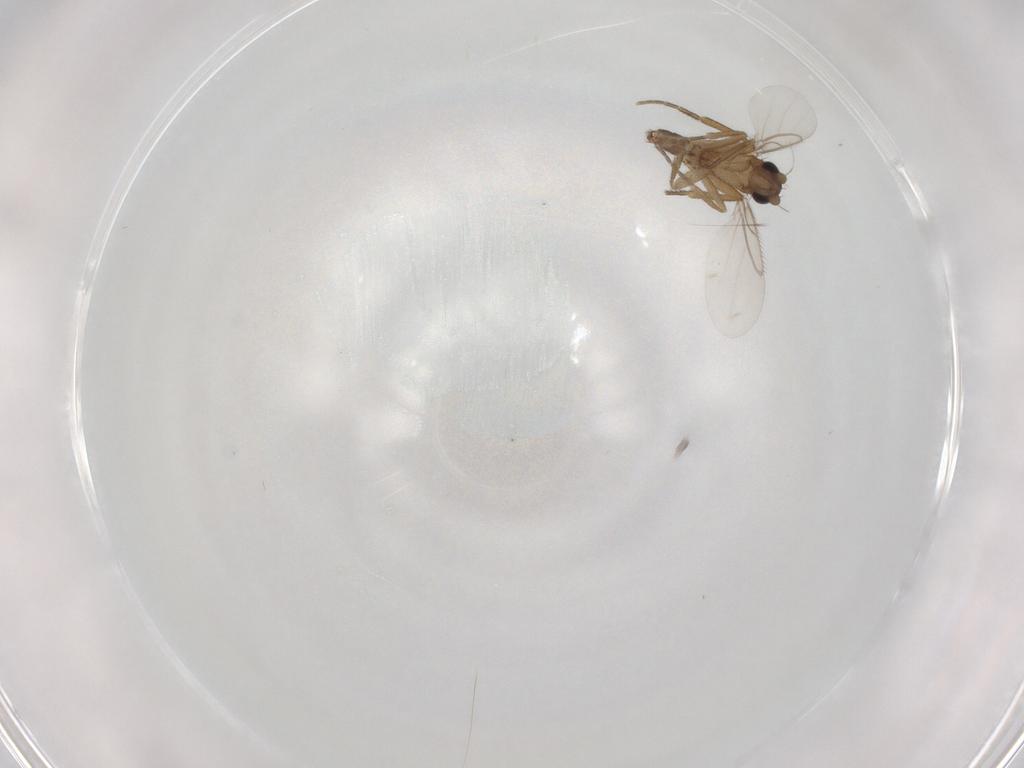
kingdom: Animalia
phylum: Arthropoda
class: Insecta
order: Diptera
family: Phoridae
